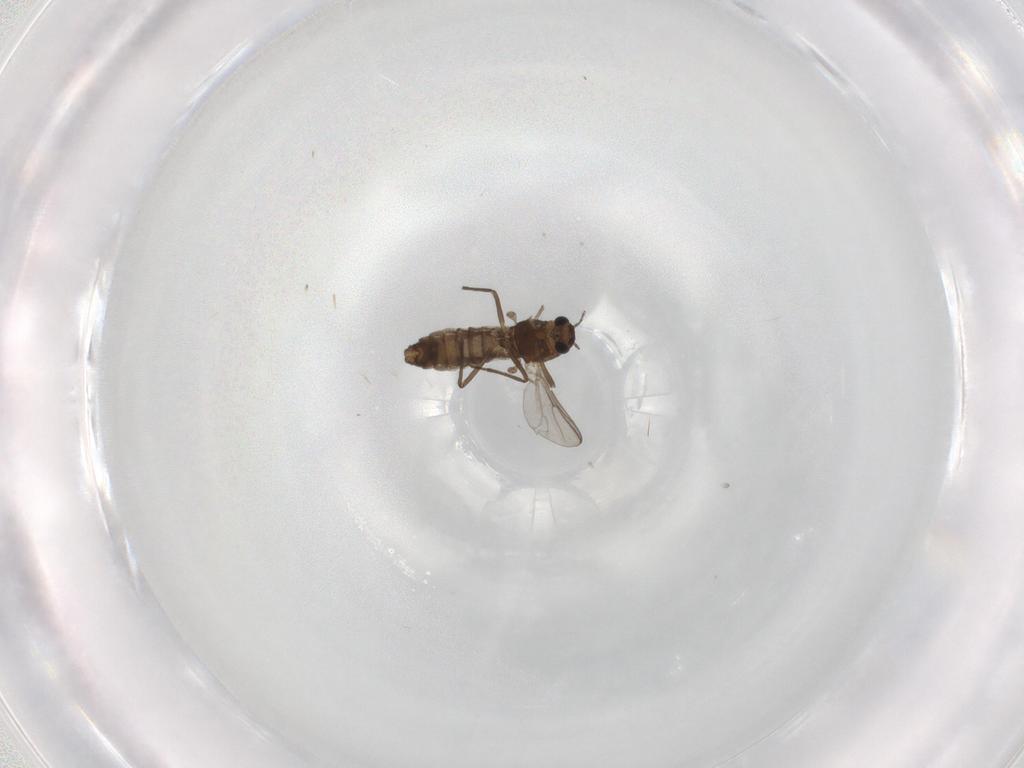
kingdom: Animalia
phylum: Arthropoda
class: Insecta
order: Diptera
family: Chironomidae
